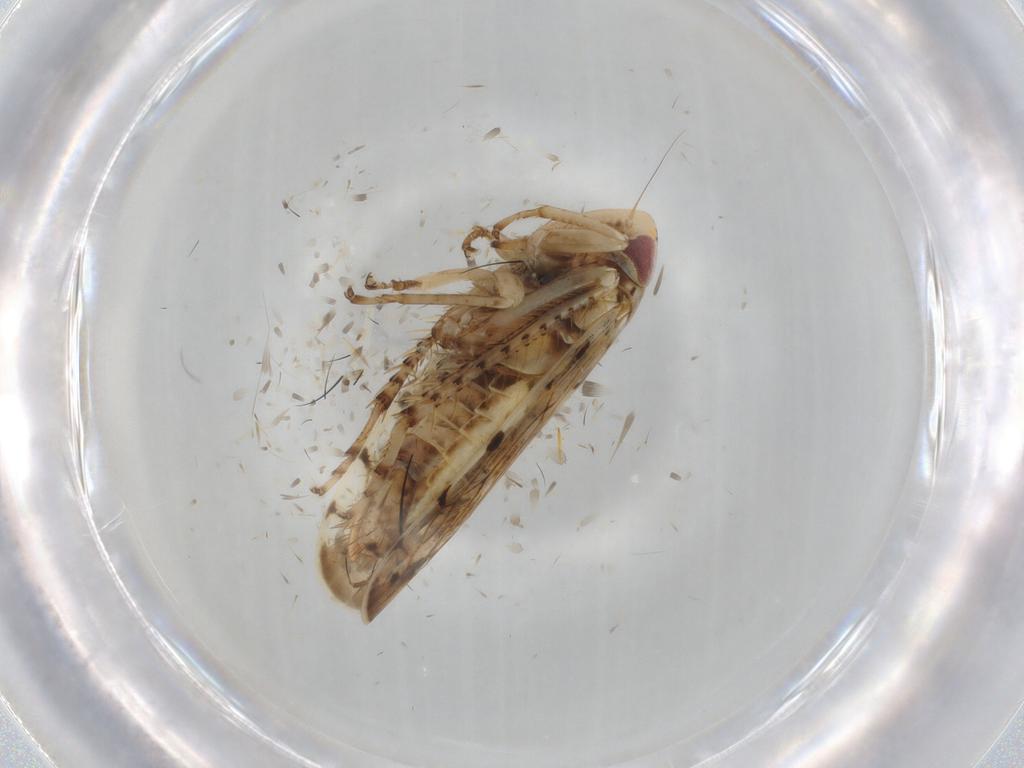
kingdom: Animalia
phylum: Arthropoda
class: Insecta
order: Hemiptera
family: Cicadellidae
